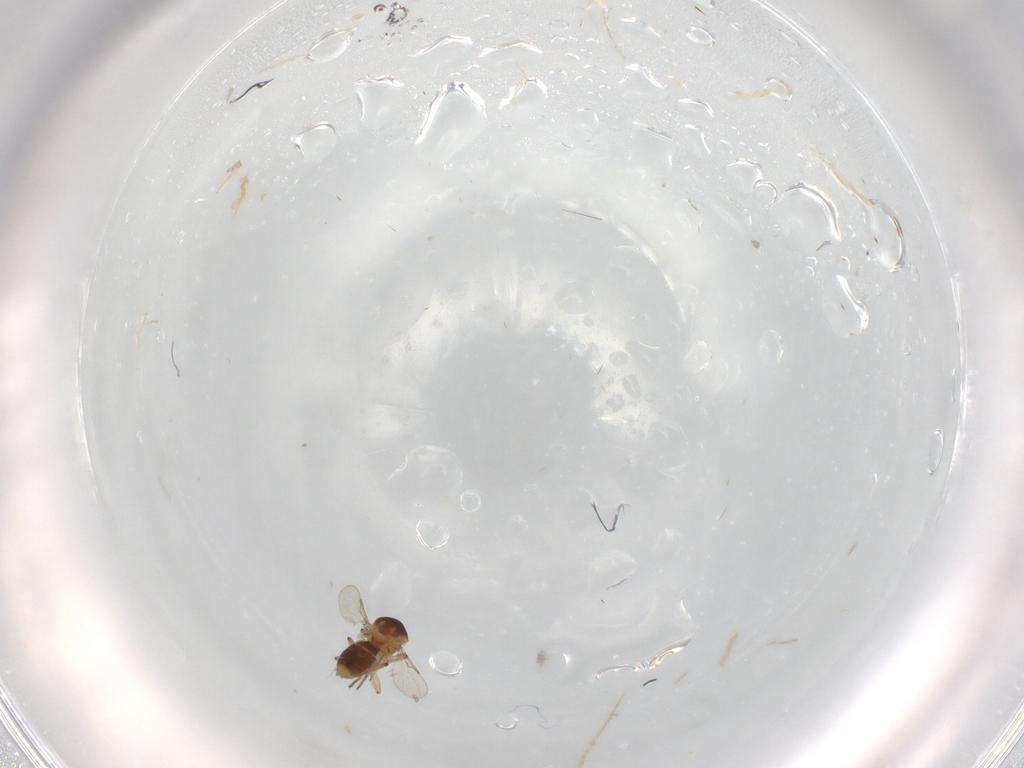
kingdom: Animalia
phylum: Arthropoda
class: Insecta
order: Diptera
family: Ceratopogonidae
